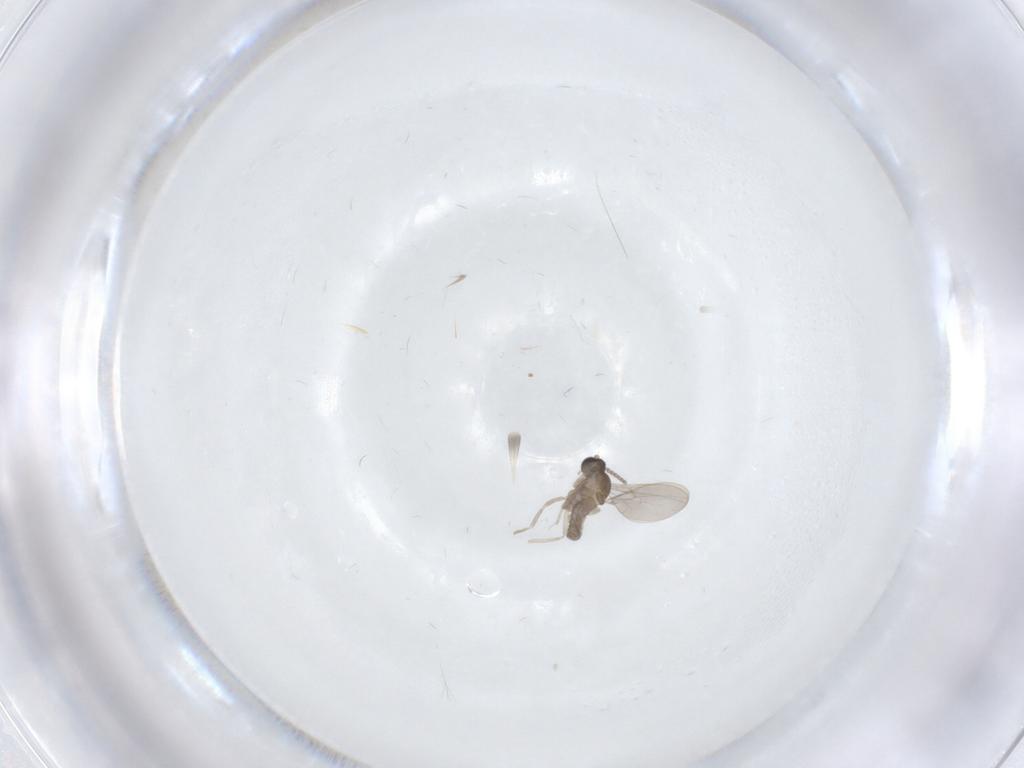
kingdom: Animalia
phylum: Arthropoda
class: Insecta
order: Diptera
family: Cecidomyiidae
